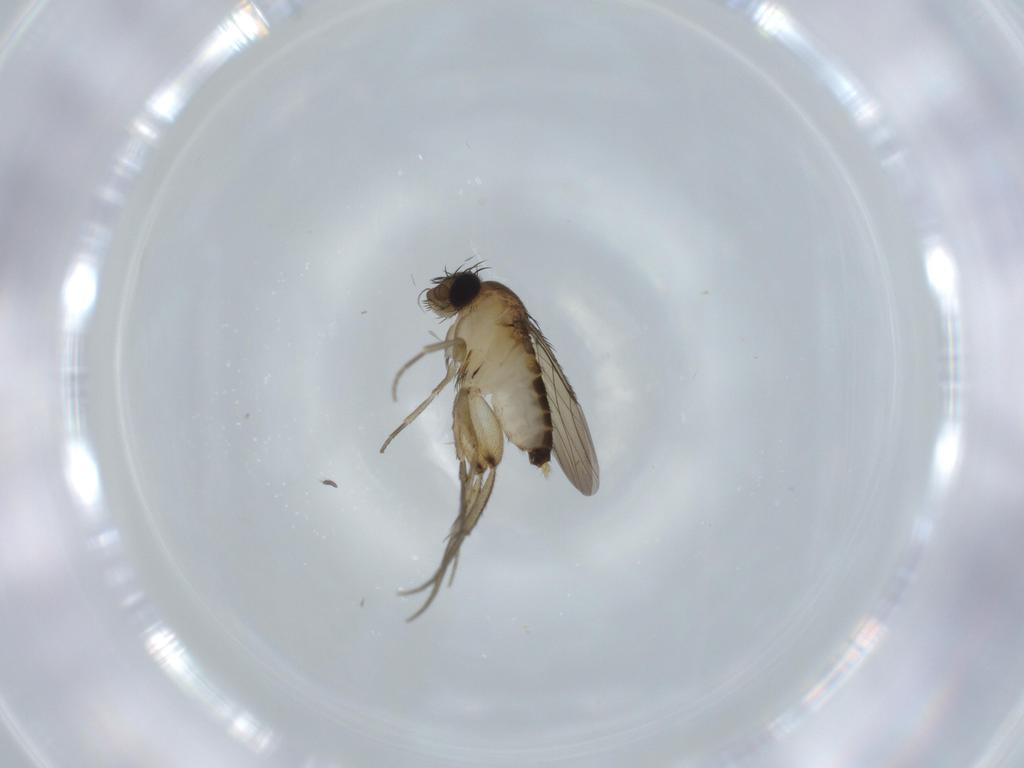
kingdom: Animalia
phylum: Arthropoda
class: Insecta
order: Diptera
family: Phoridae
